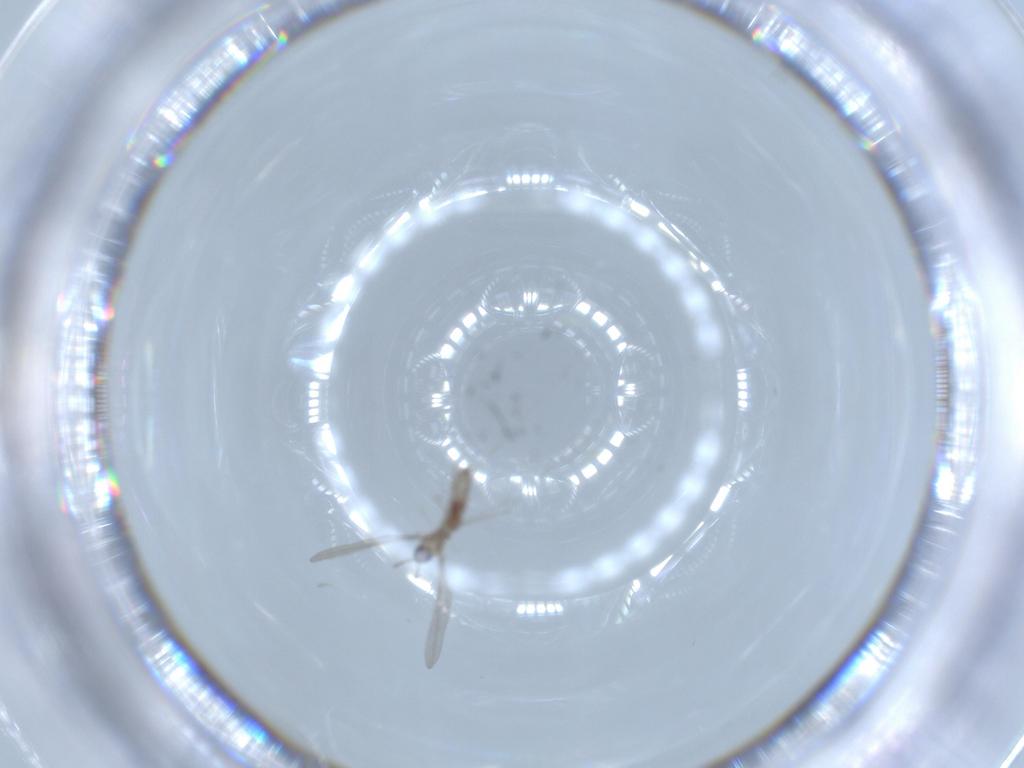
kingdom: Animalia
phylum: Arthropoda
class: Insecta
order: Diptera
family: Cecidomyiidae
